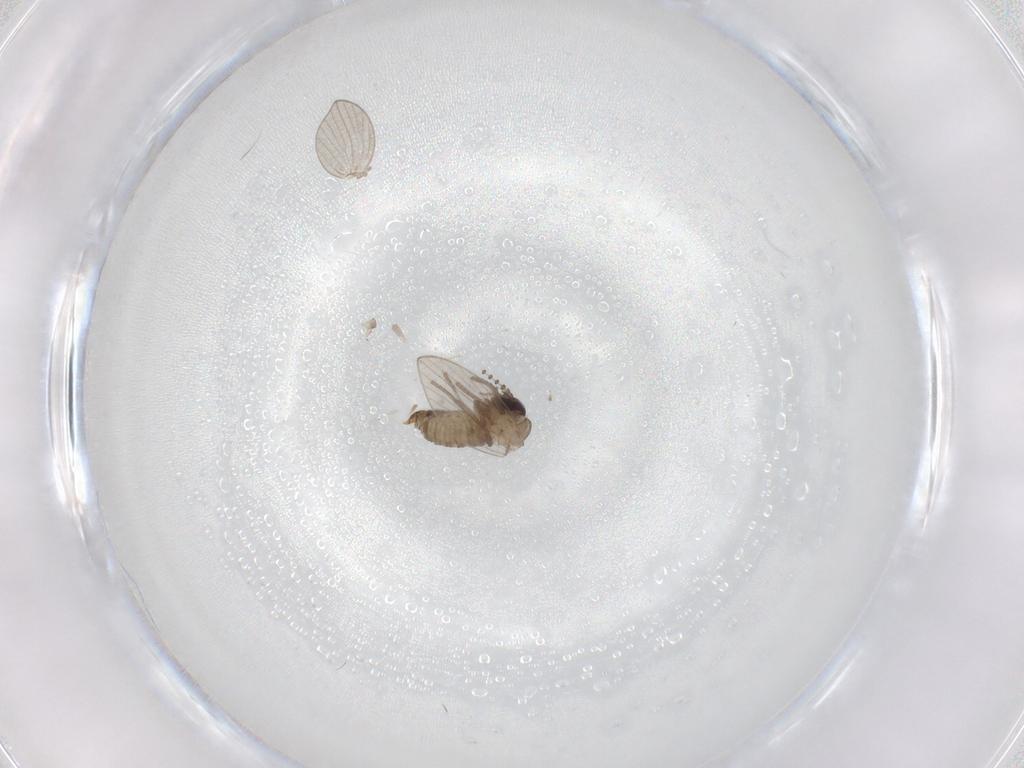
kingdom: Animalia
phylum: Arthropoda
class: Insecta
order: Diptera
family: Psychodidae
